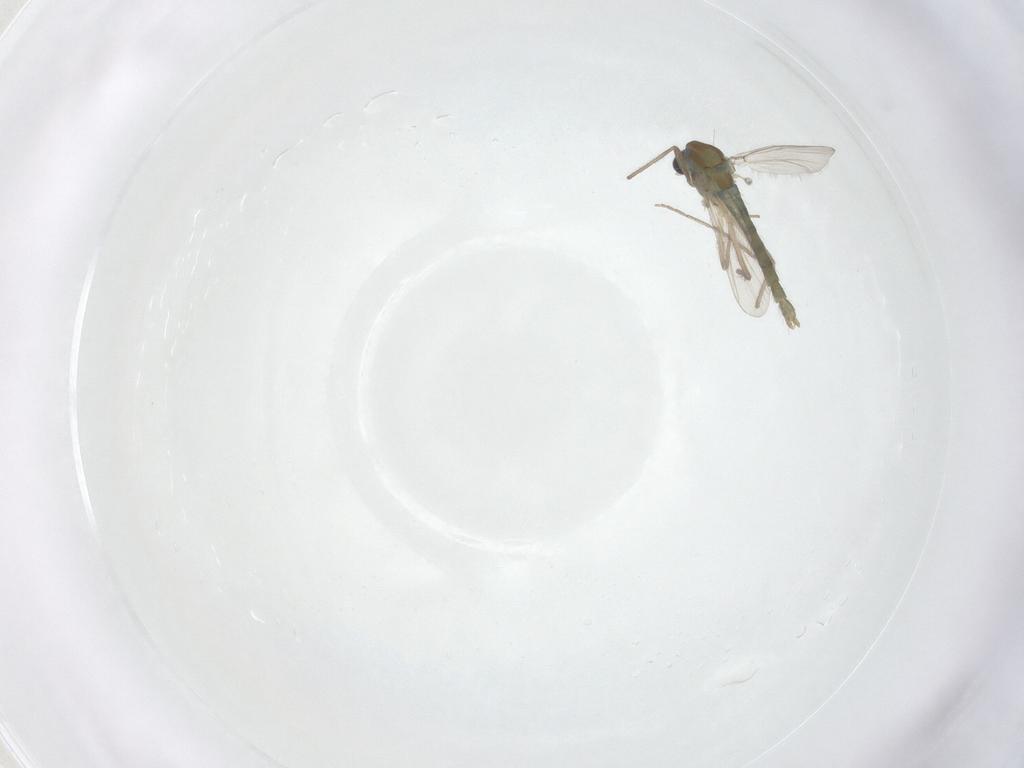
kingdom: Animalia
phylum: Arthropoda
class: Insecta
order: Diptera
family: Chironomidae
